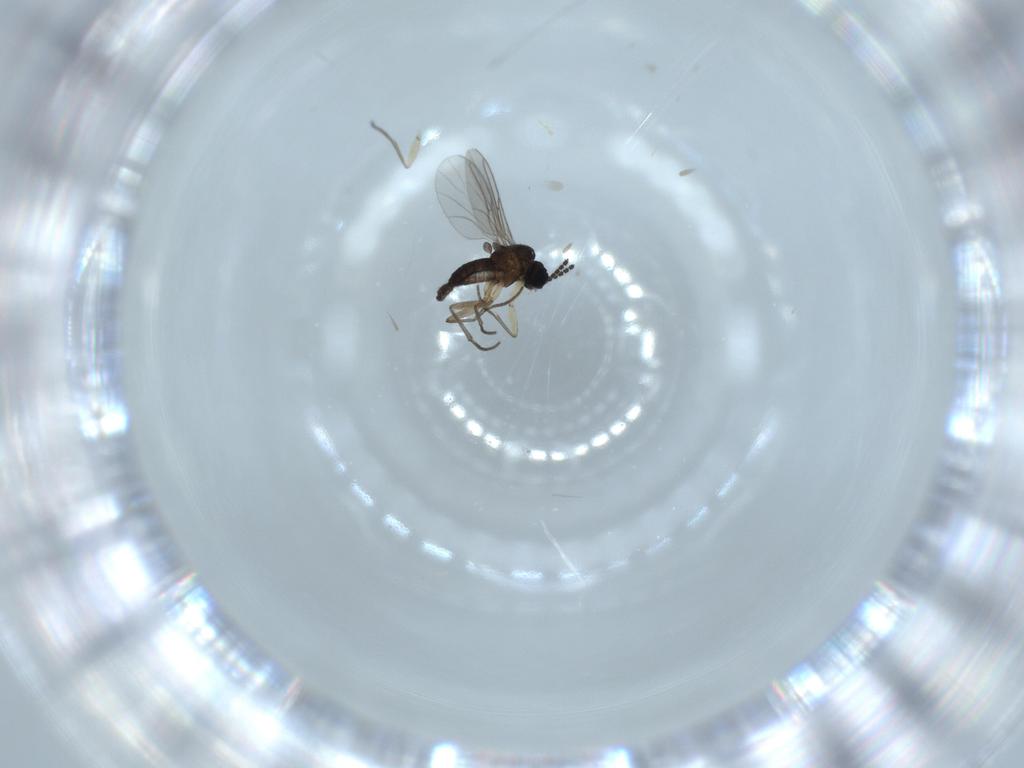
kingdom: Animalia
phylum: Arthropoda
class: Insecta
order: Diptera
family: Sciaridae
